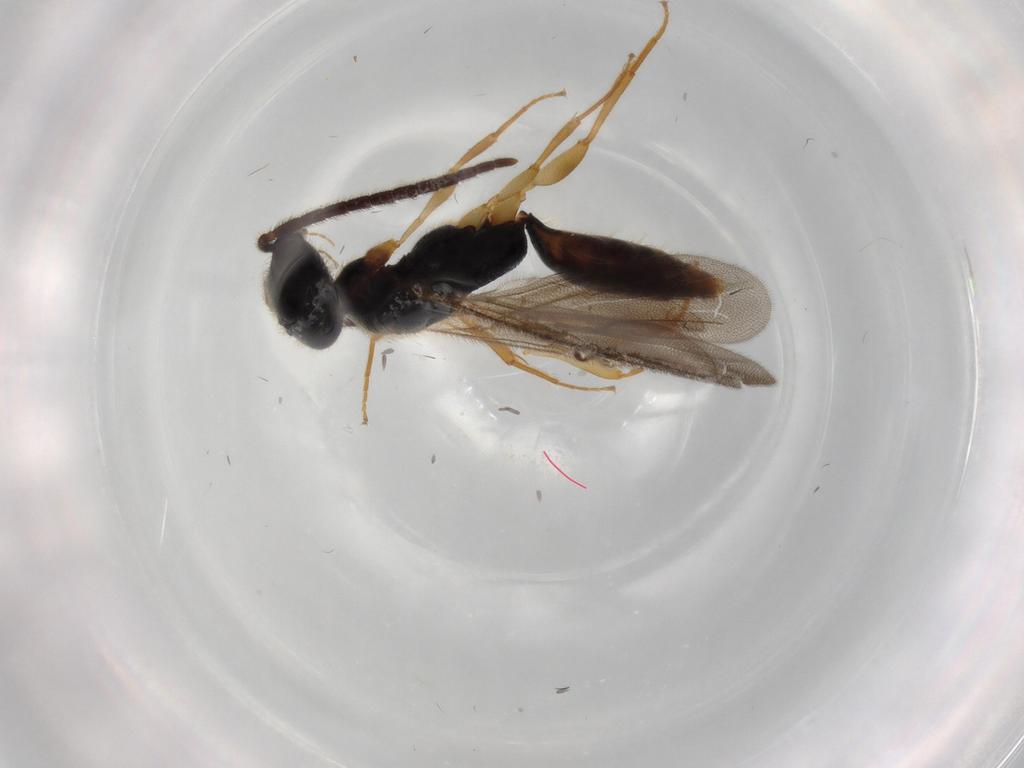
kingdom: Animalia
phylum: Arthropoda
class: Insecta
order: Hymenoptera
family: Bethylidae
